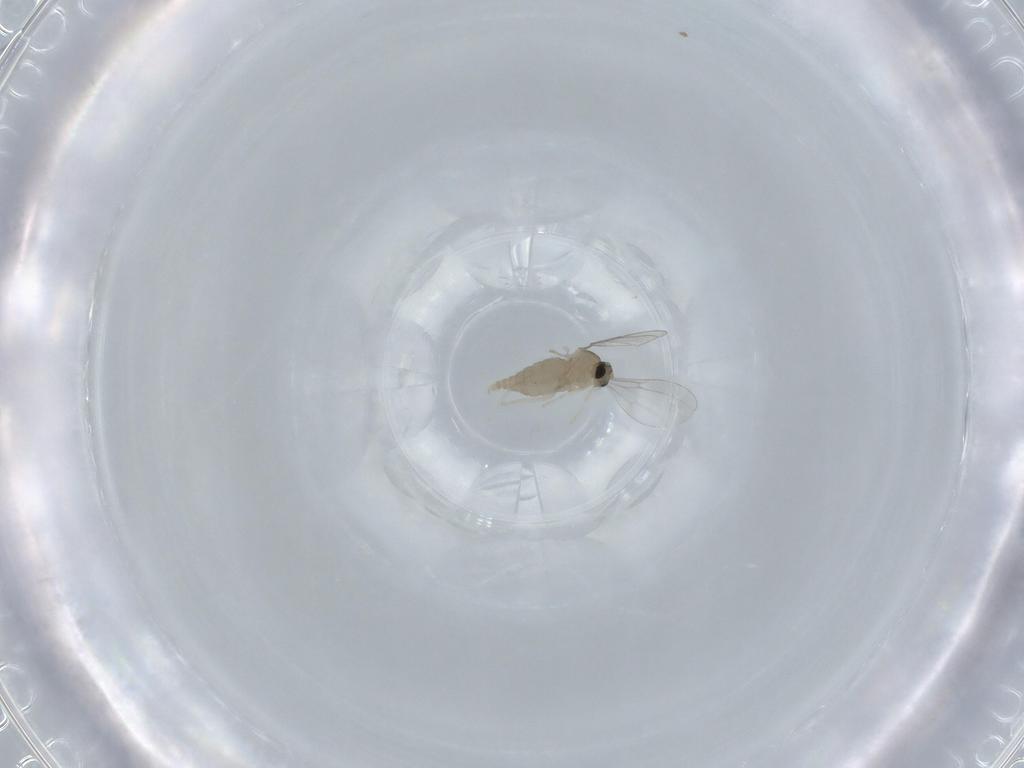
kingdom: Animalia
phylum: Arthropoda
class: Insecta
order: Diptera
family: Cecidomyiidae
